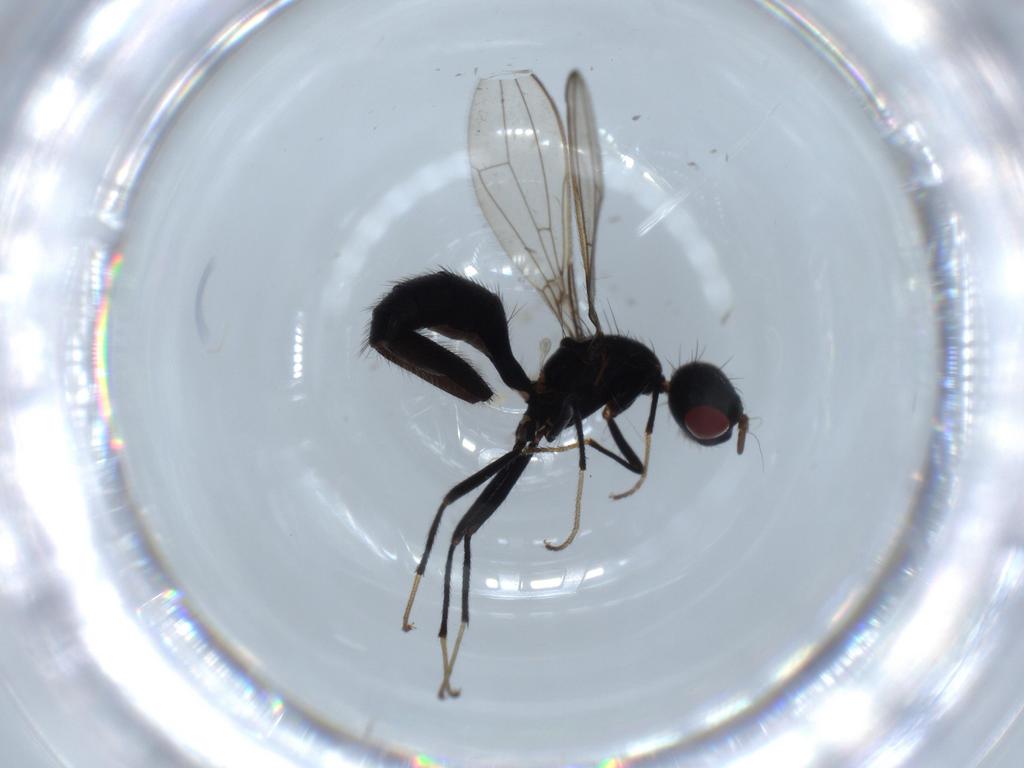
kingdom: Animalia
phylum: Arthropoda
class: Insecta
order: Diptera
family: Richardiidae
